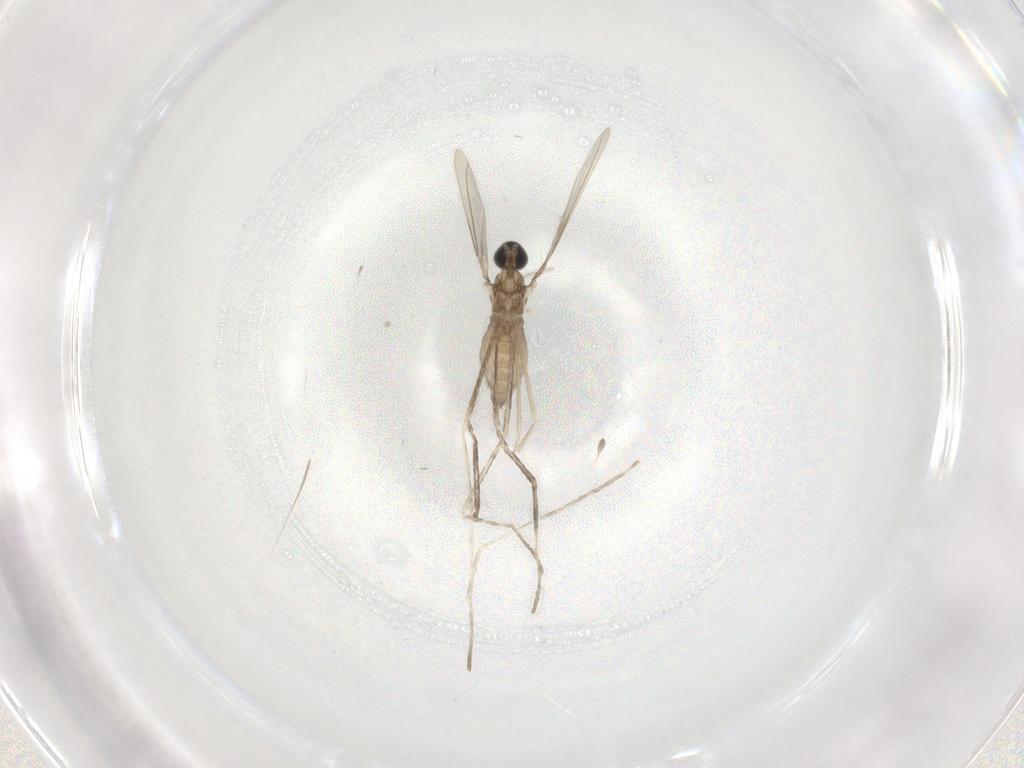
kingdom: Animalia
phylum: Arthropoda
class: Insecta
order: Diptera
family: Cecidomyiidae
